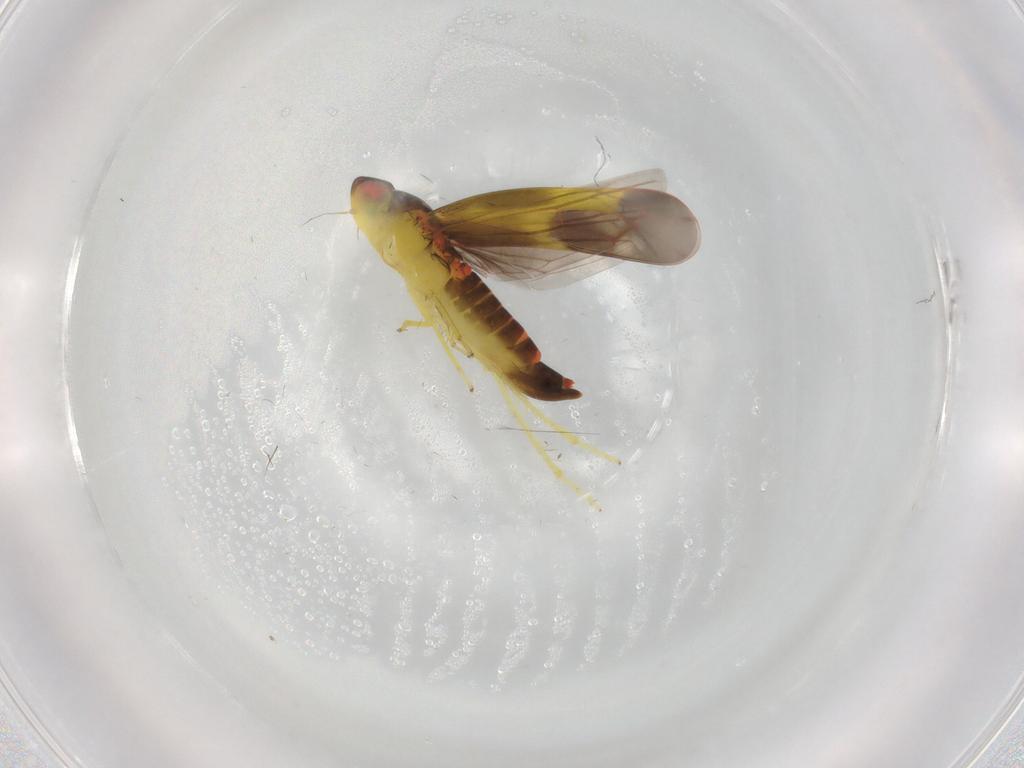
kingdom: Animalia
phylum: Arthropoda
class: Insecta
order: Hemiptera
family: Cicadellidae
